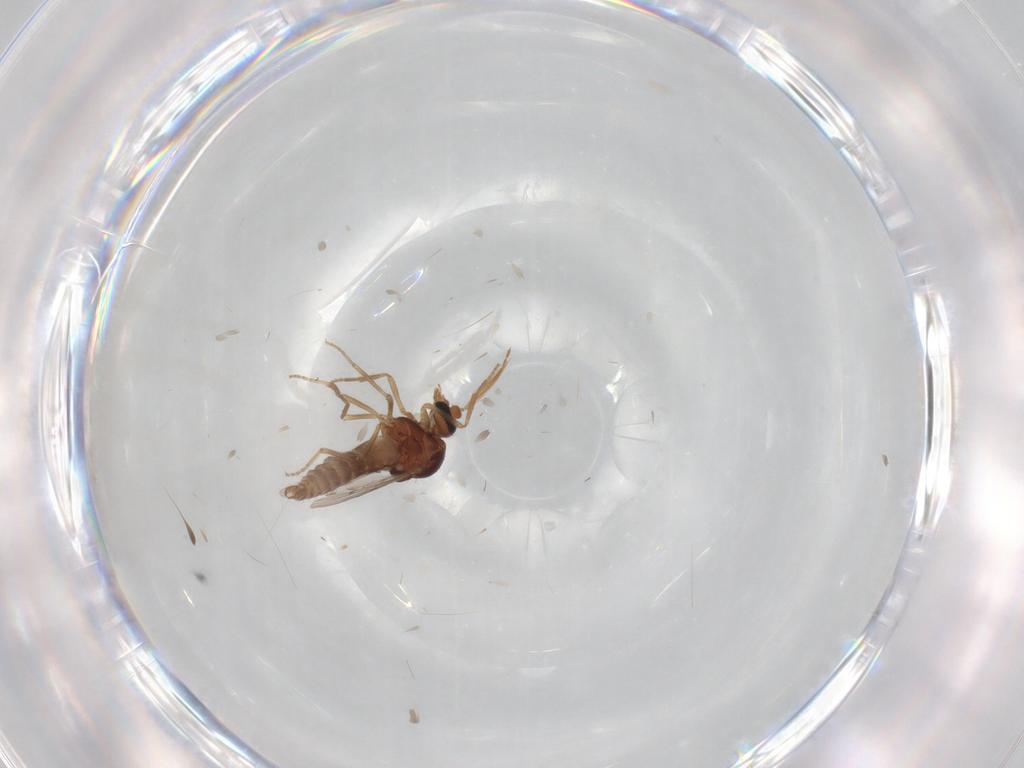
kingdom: Animalia
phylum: Arthropoda
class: Insecta
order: Diptera
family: Ceratopogonidae
